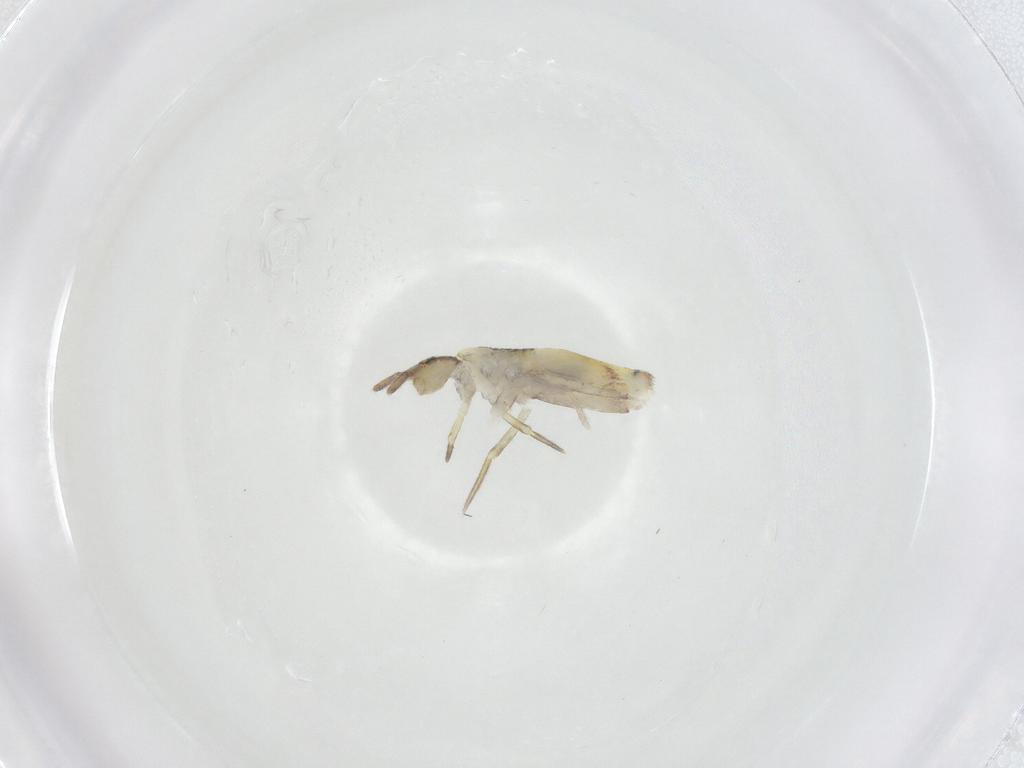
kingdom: Animalia
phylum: Arthropoda
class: Collembola
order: Entomobryomorpha
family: Entomobryidae
